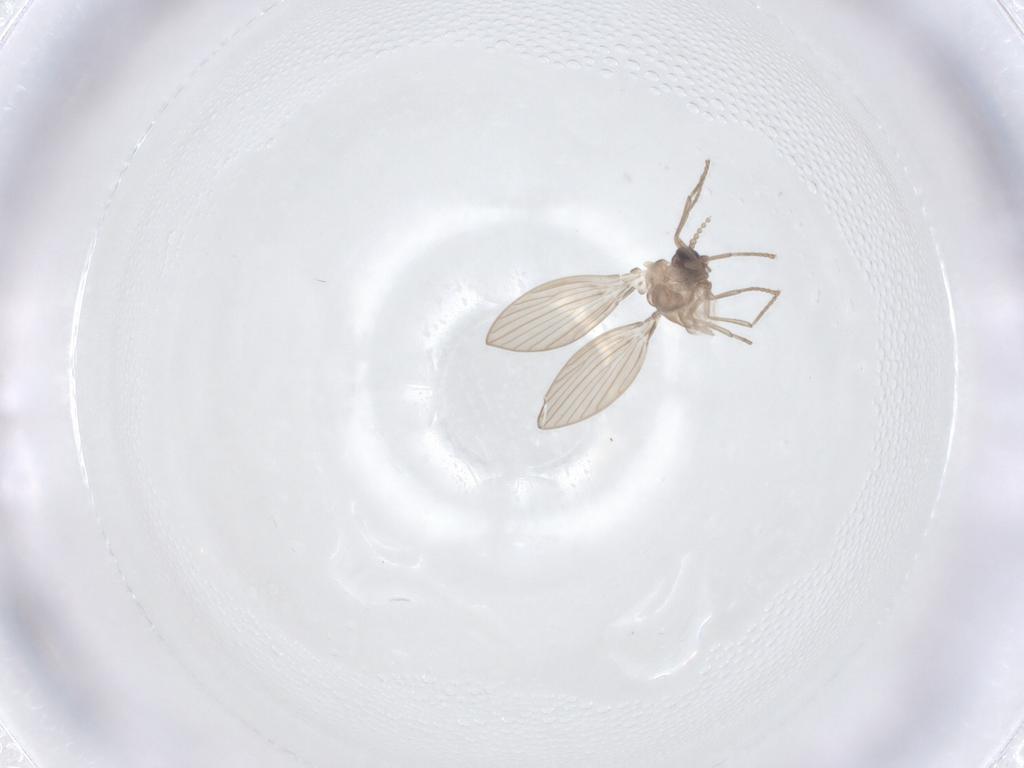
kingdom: Animalia
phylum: Arthropoda
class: Insecta
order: Diptera
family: Psychodidae
